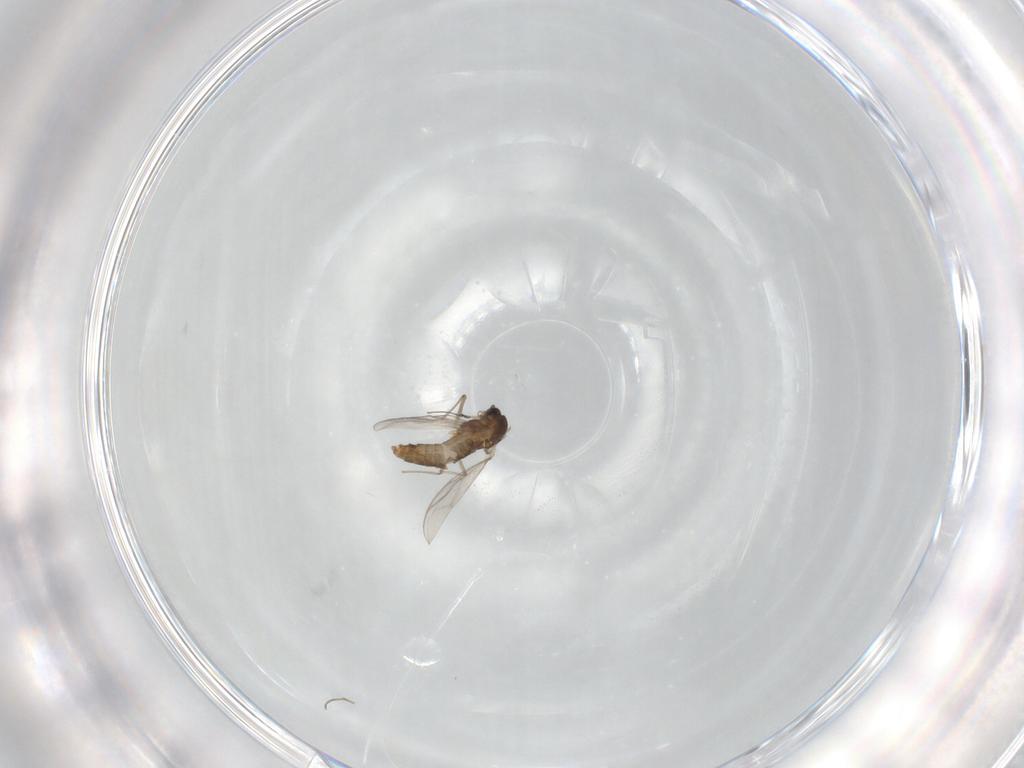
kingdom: Animalia
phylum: Arthropoda
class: Insecta
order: Diptera
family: Chironomidae
